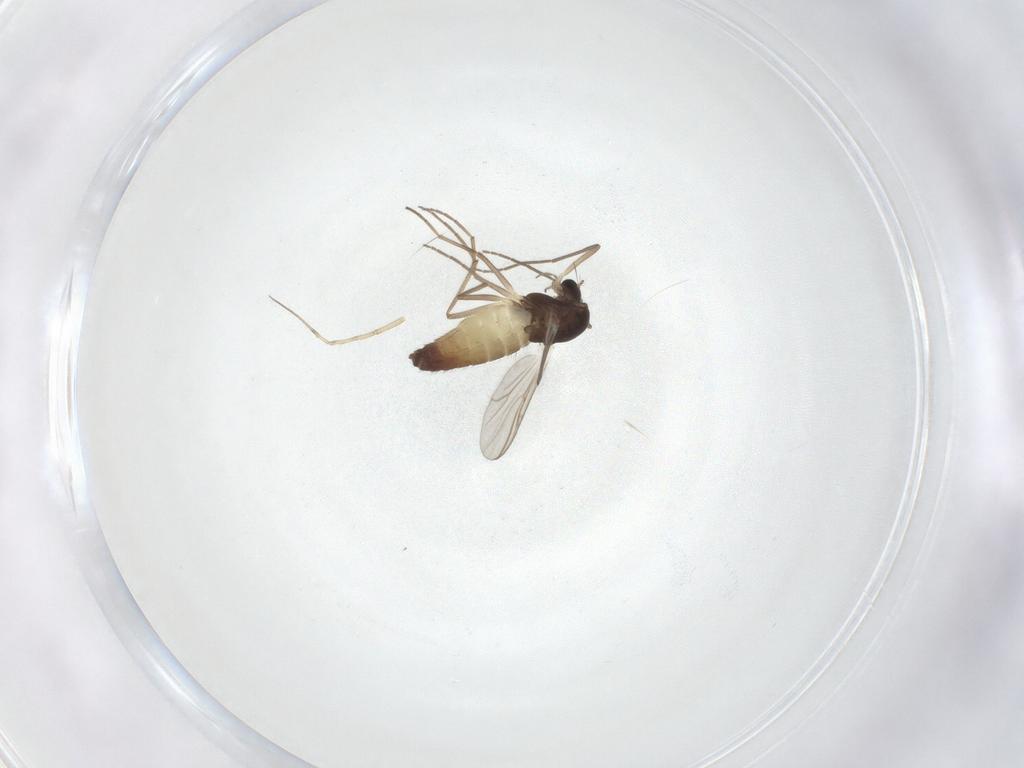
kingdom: Animalia
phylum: Arthropoda
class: Insecta
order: Diptera
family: Chironomidae
